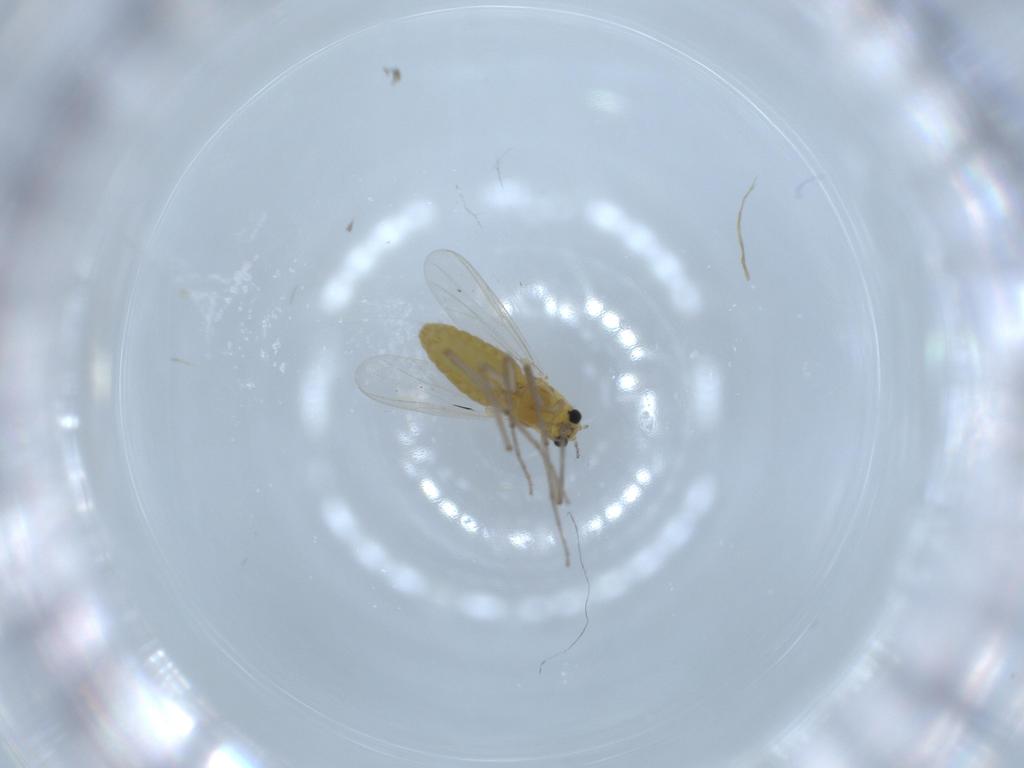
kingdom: Animalia
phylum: Arthropoda
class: Insecta
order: Diptera
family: Chironomidae
